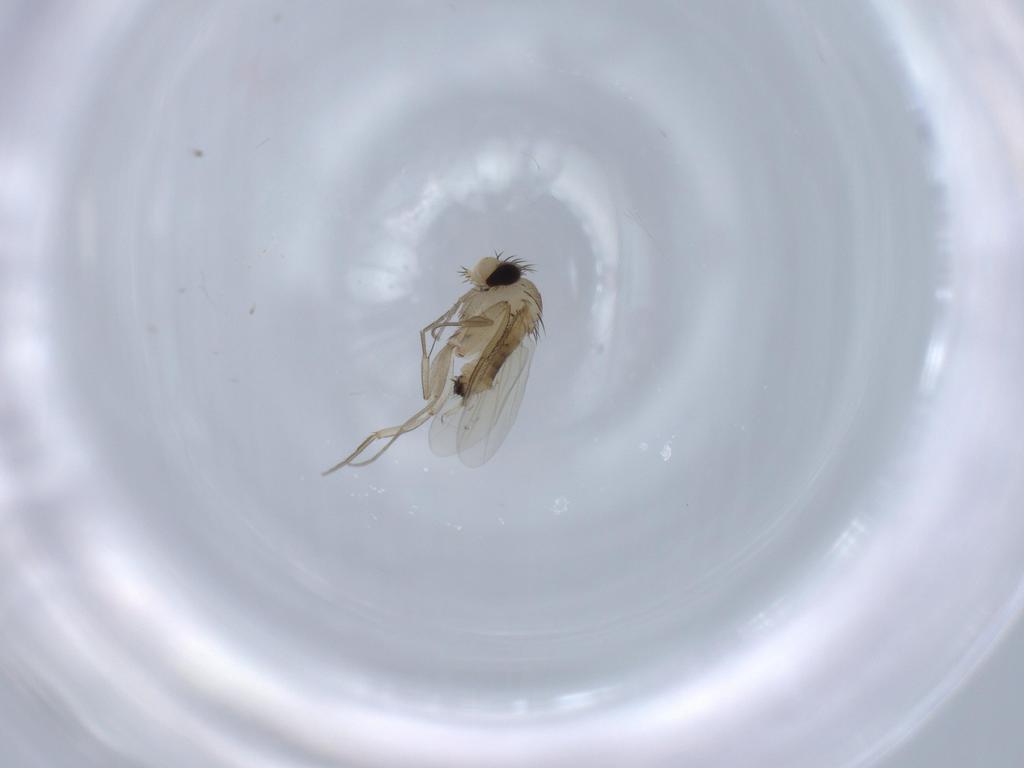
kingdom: Animalia
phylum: Arthropoda
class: Insecta
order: Diptera
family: Phoridae
